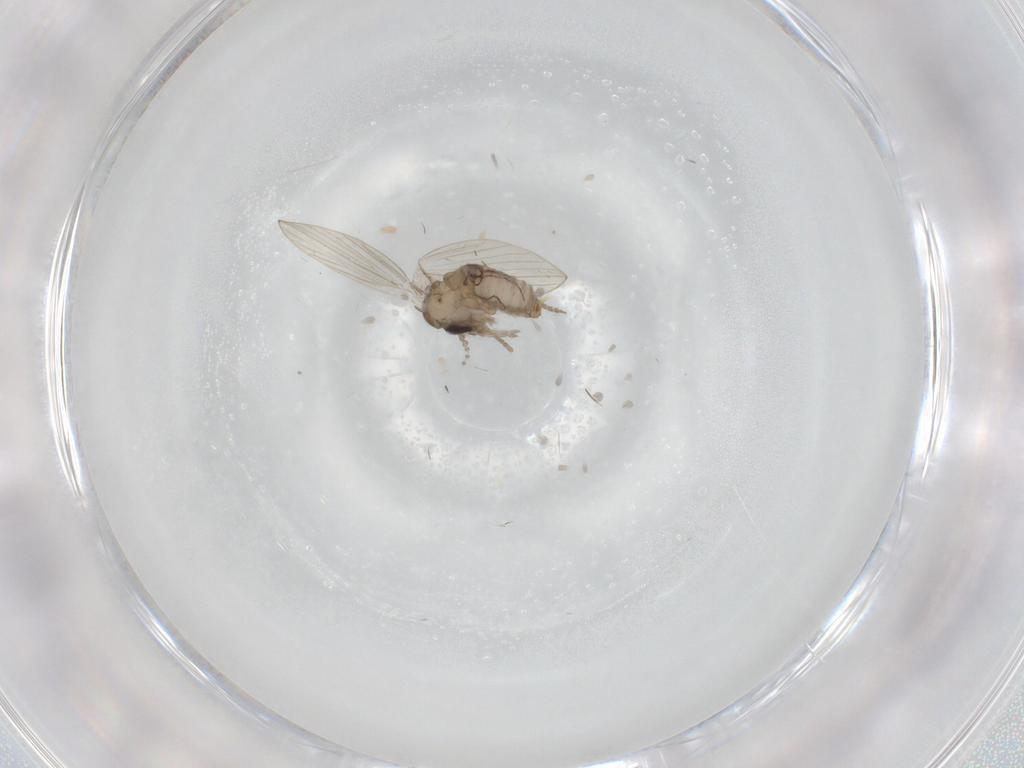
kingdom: Animalia
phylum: Arthropoda
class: Insecta
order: Diptera
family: Psychodidae
